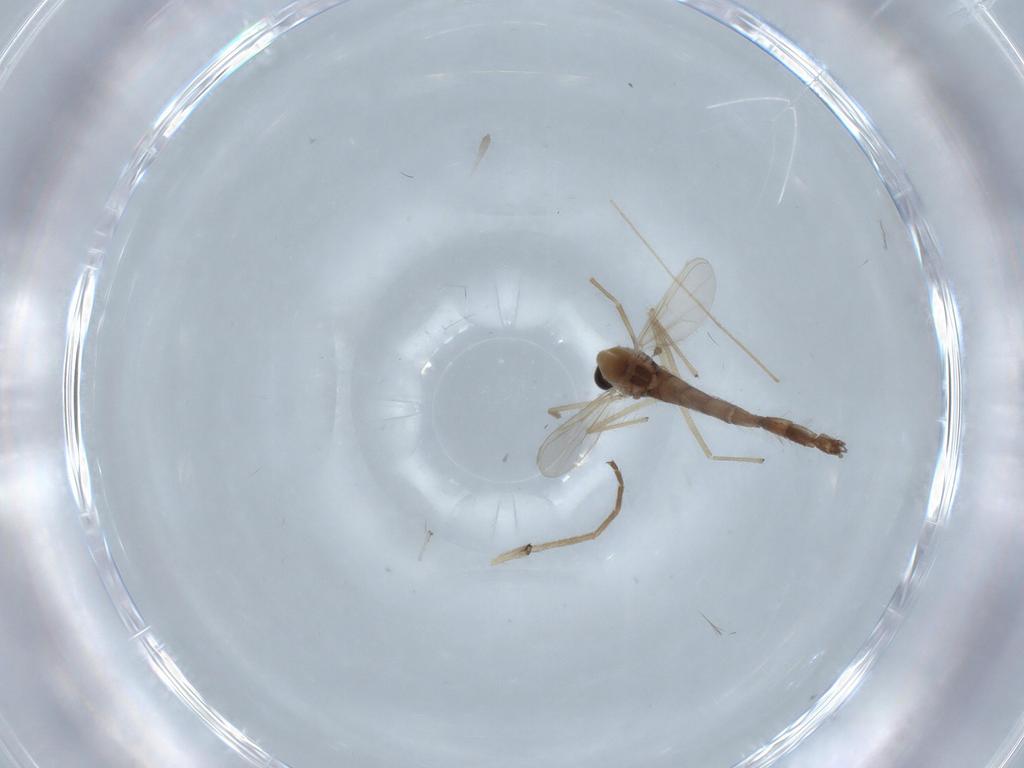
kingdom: Animalia
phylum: Arthropoda
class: Insecta
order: Diptera
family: Chironomidae
